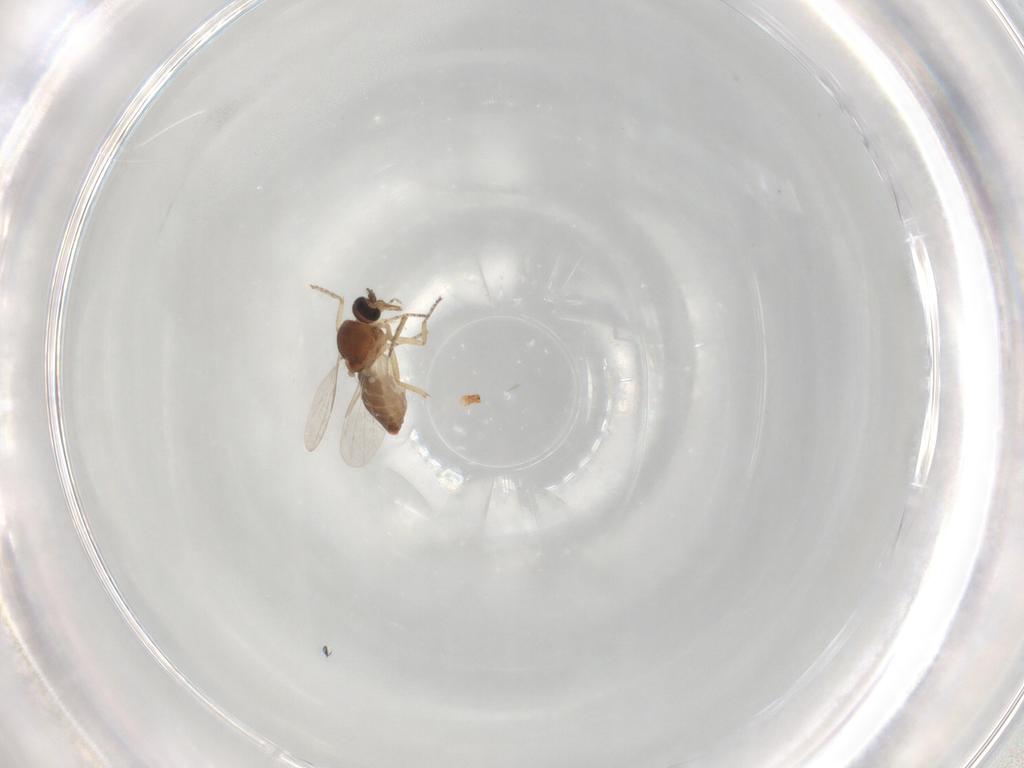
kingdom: Animalia
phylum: Arthropoda
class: Insecta
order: Diptera
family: Ceratopogonidae
